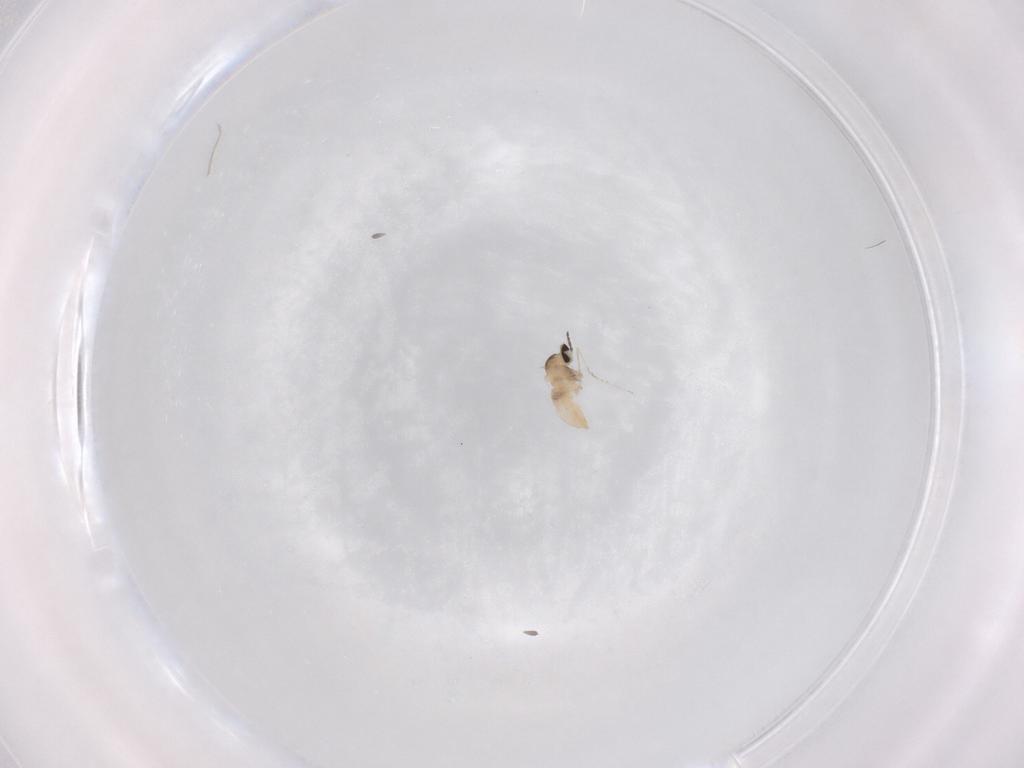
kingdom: Animalia
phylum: Arthropoda
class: Insecta
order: Diptera
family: Cecidomyiidae
